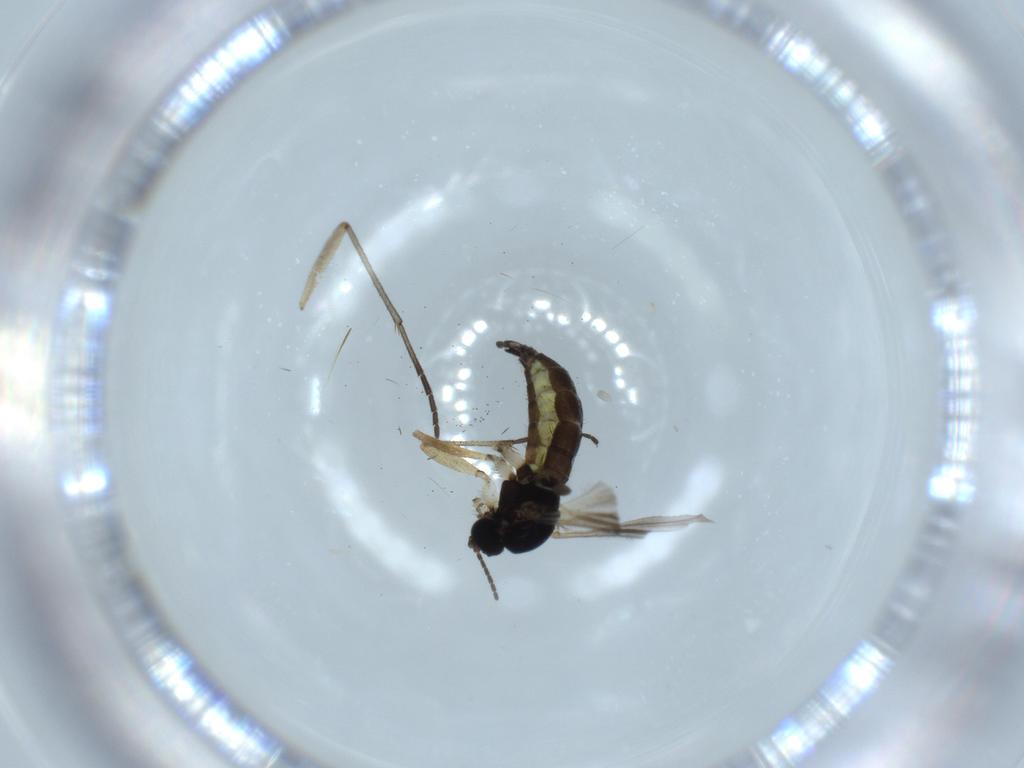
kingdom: Animalia
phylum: Arthropoda
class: Insecta
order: Diptera
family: Sciaridae
